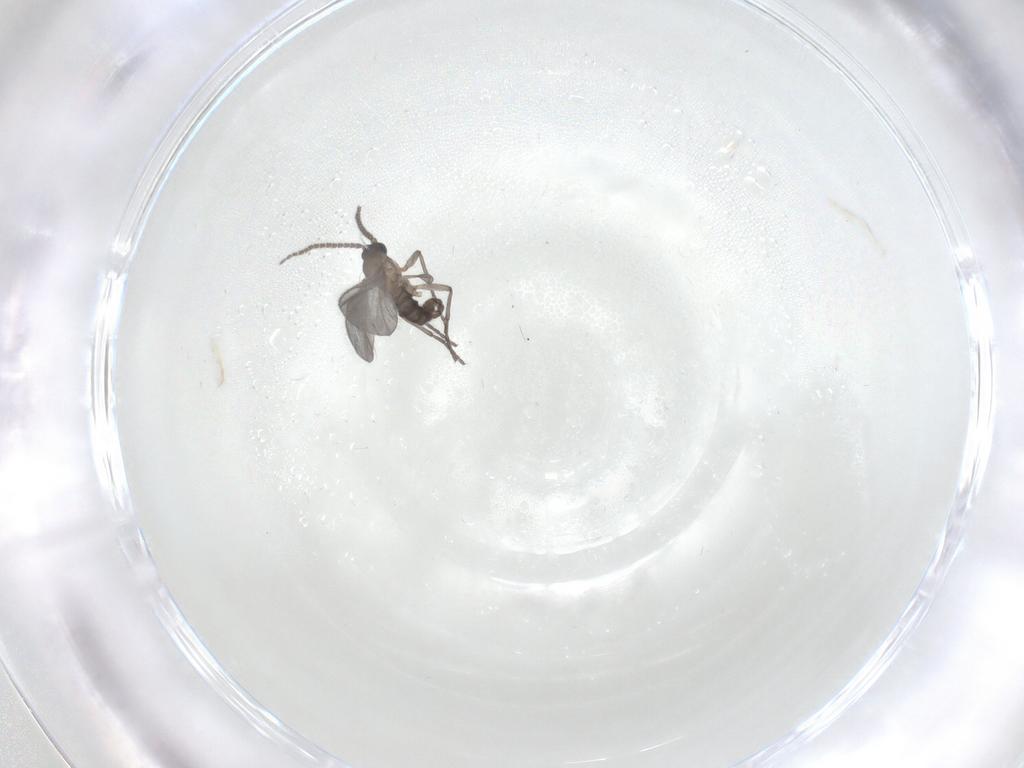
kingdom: Animalia
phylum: Arthropoda
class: Insecta
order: Diptera
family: Sciaridae
